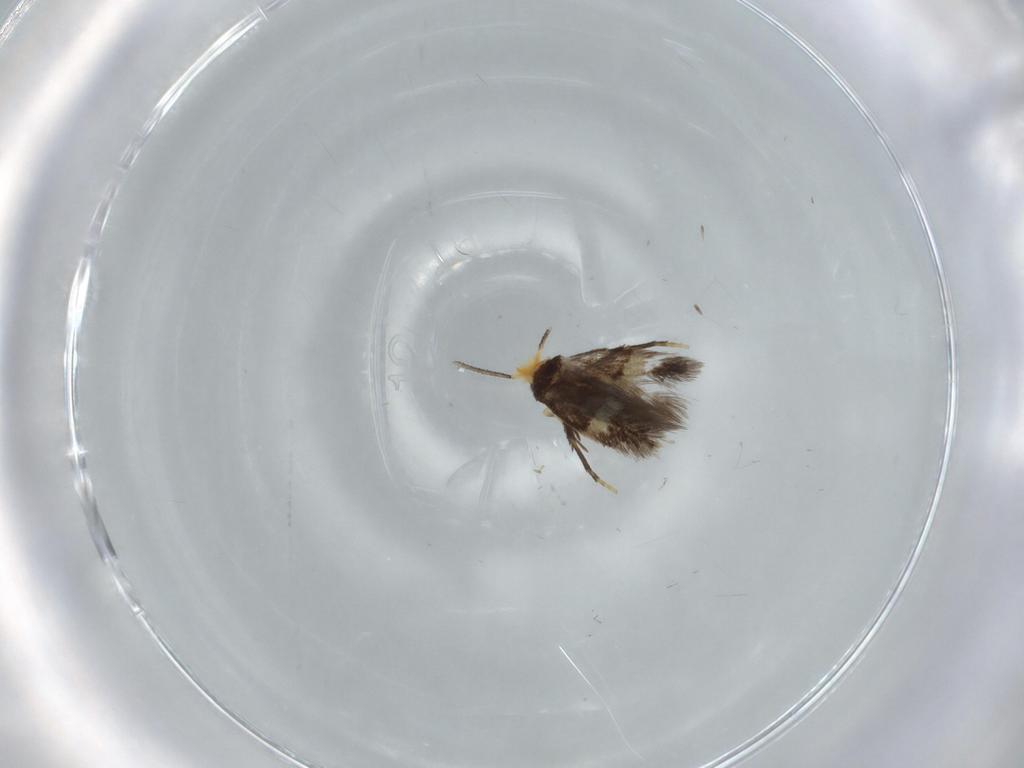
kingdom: Animalia
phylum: Arthropoda
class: Insecta
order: Lepidoptera
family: Nepticulidae
